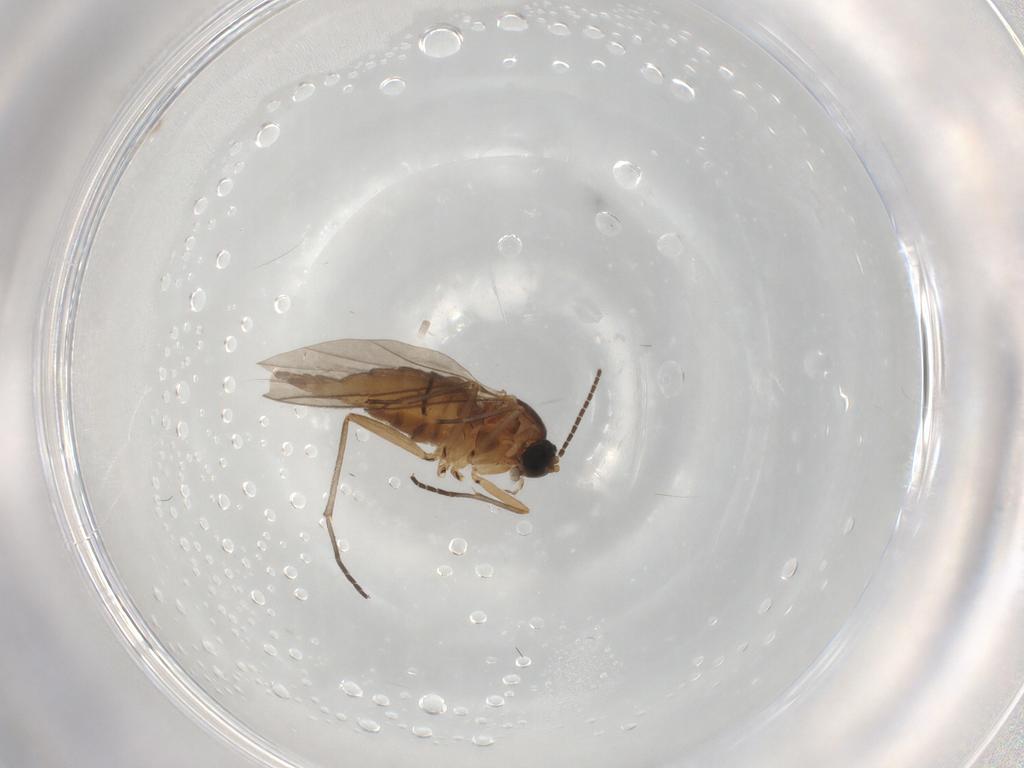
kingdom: Animalia
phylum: Arthropoda
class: Insecta
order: Diptera
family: Sciaridae
